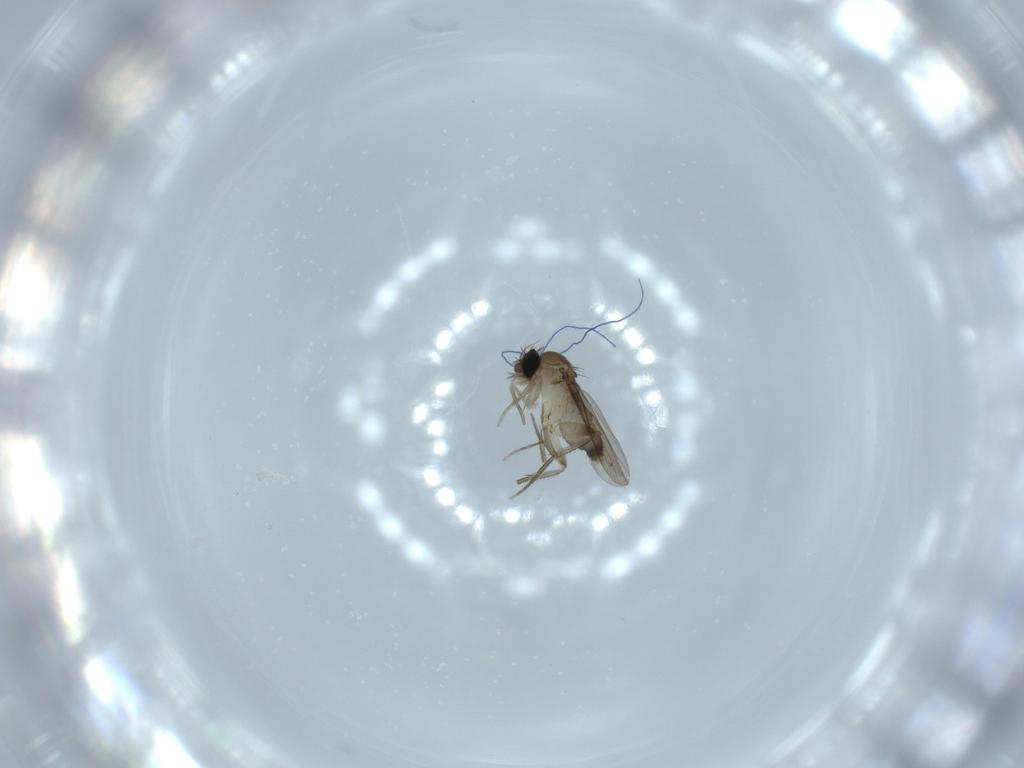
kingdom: Animalia
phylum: Arthropoda
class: Insecta
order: Diptera
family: Phoridae
